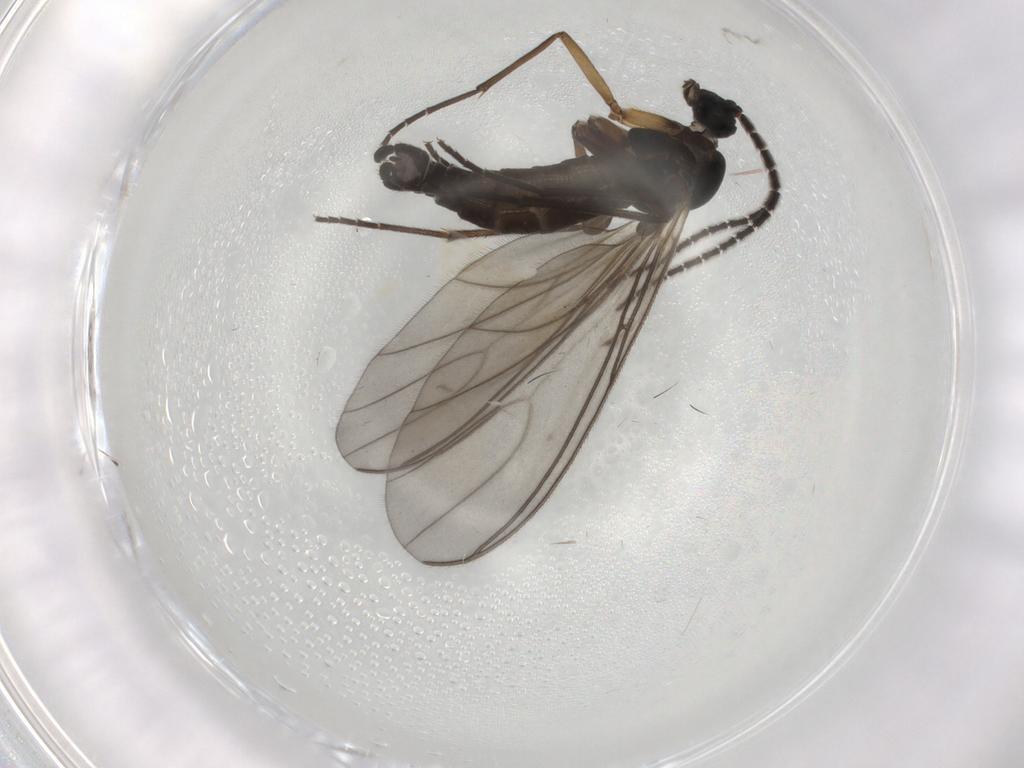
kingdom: Animalia
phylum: Arthropoda
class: Insecta
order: Diptera
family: Sciaridae
